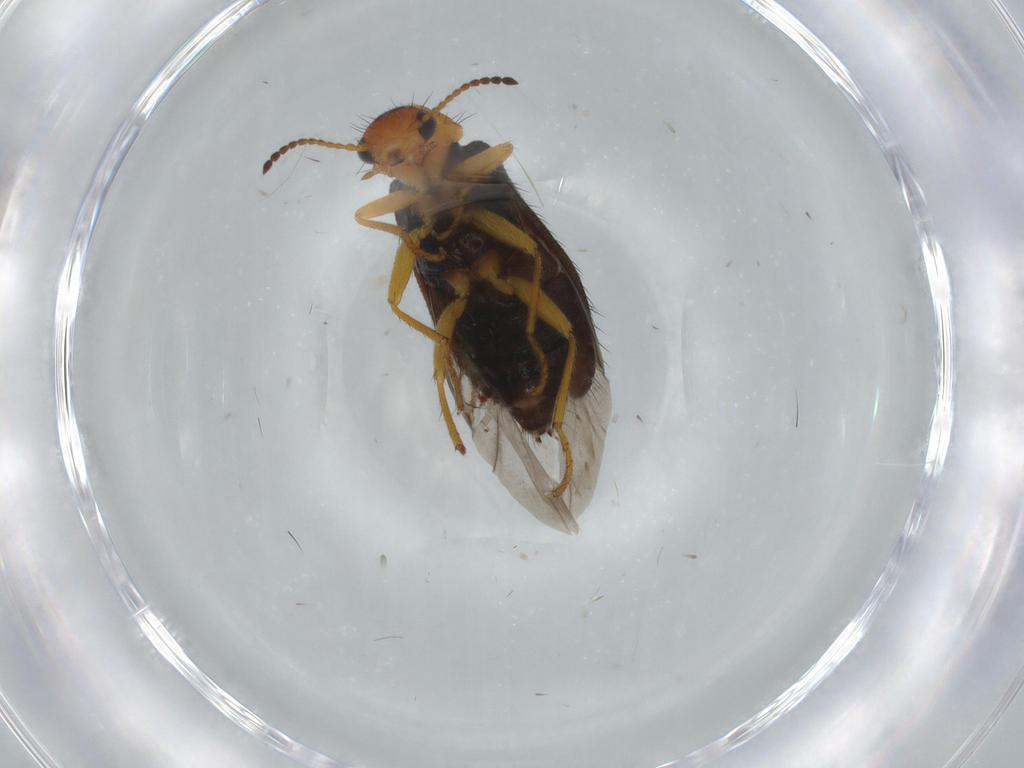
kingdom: Animalia
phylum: Arthropoda
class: Insecta
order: Coleoptera
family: Melyridae
